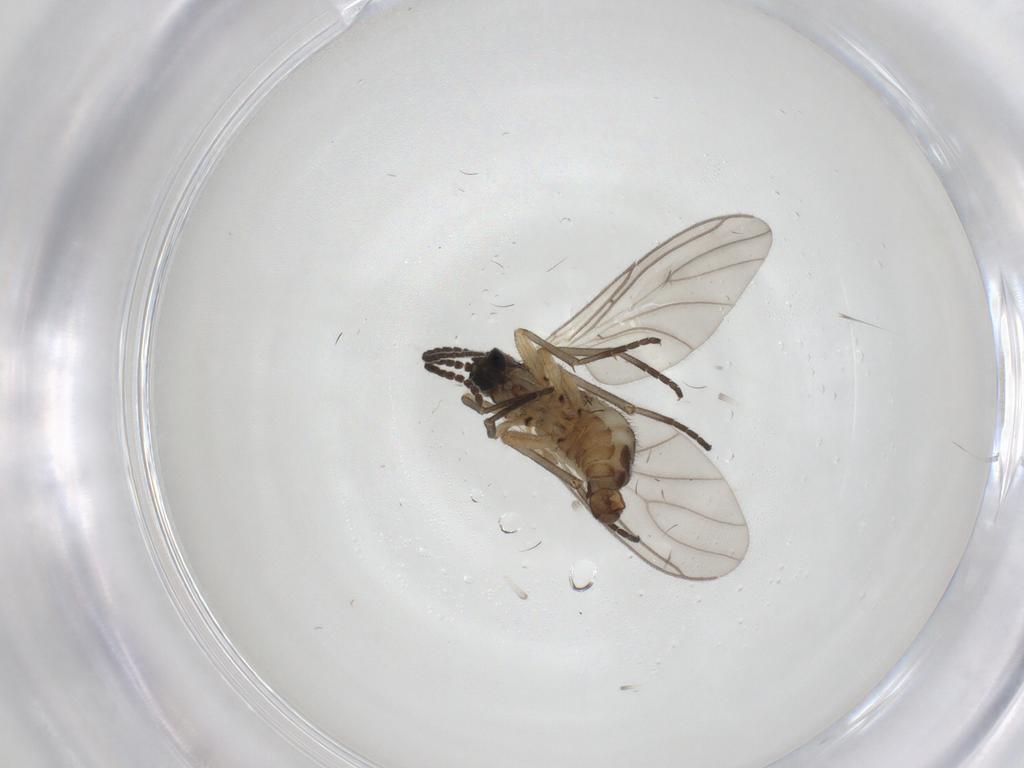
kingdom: Animalia
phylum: Arthropoda
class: Insecta
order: Diptera
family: Sciaridae
